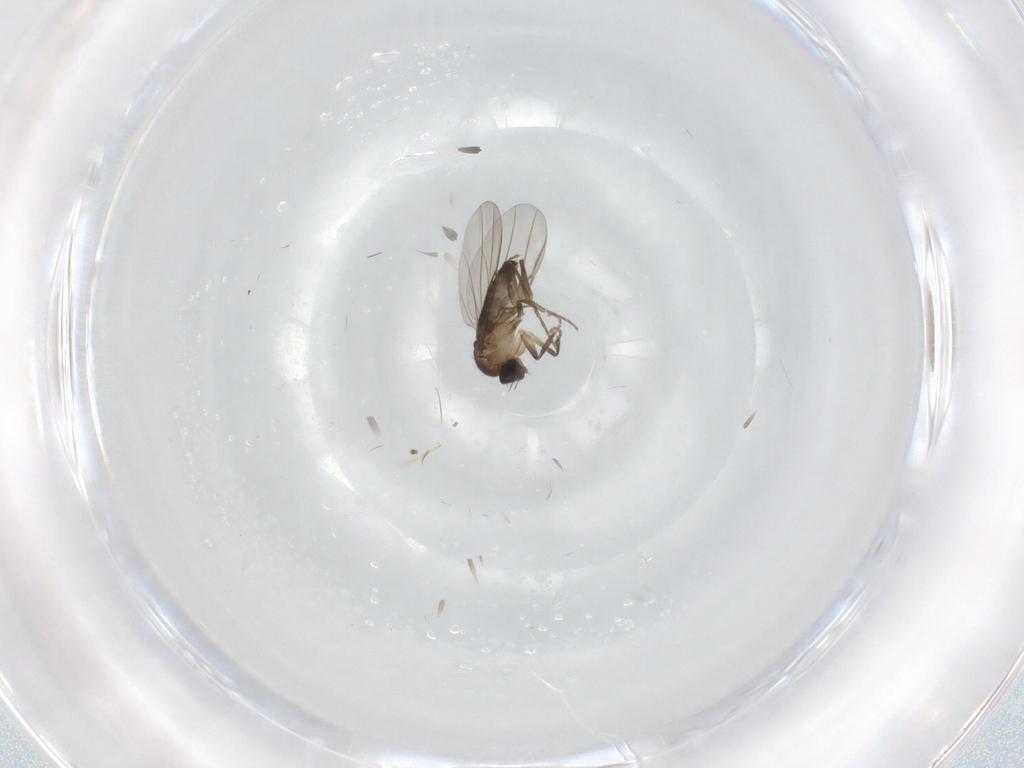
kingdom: Animalia
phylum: Arthropoda
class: Insecta
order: Diptera
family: Phoridae
